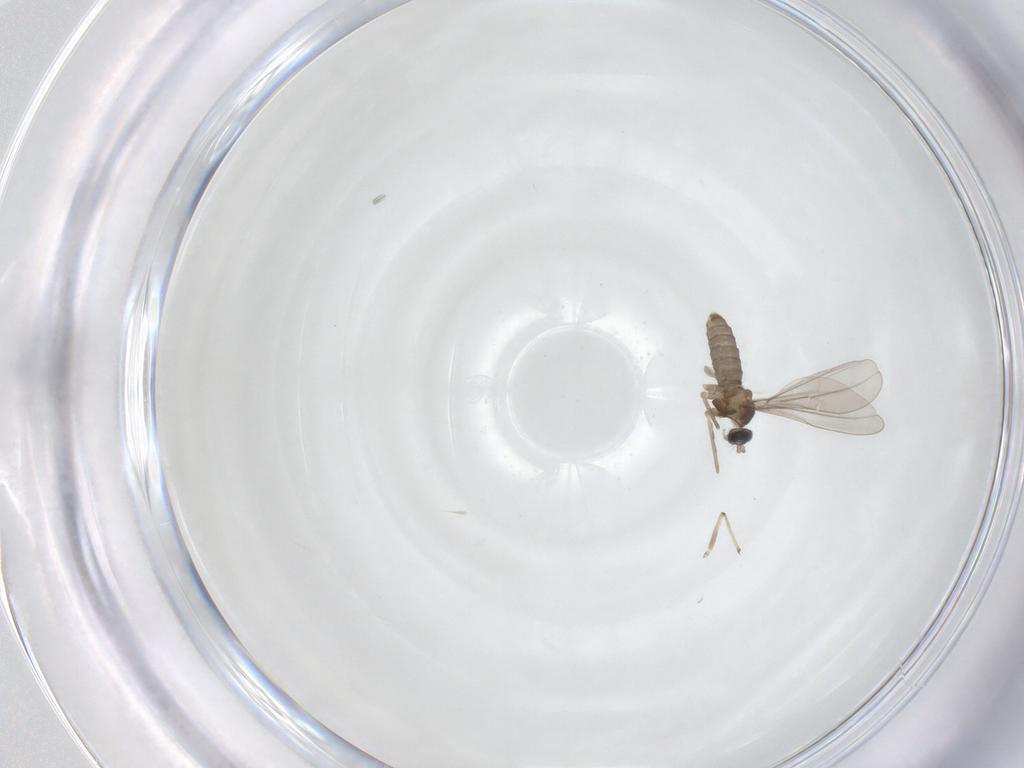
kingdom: Animalia
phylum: Arthropoda
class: Insecta
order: Diptera
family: Cecidomyiidae
